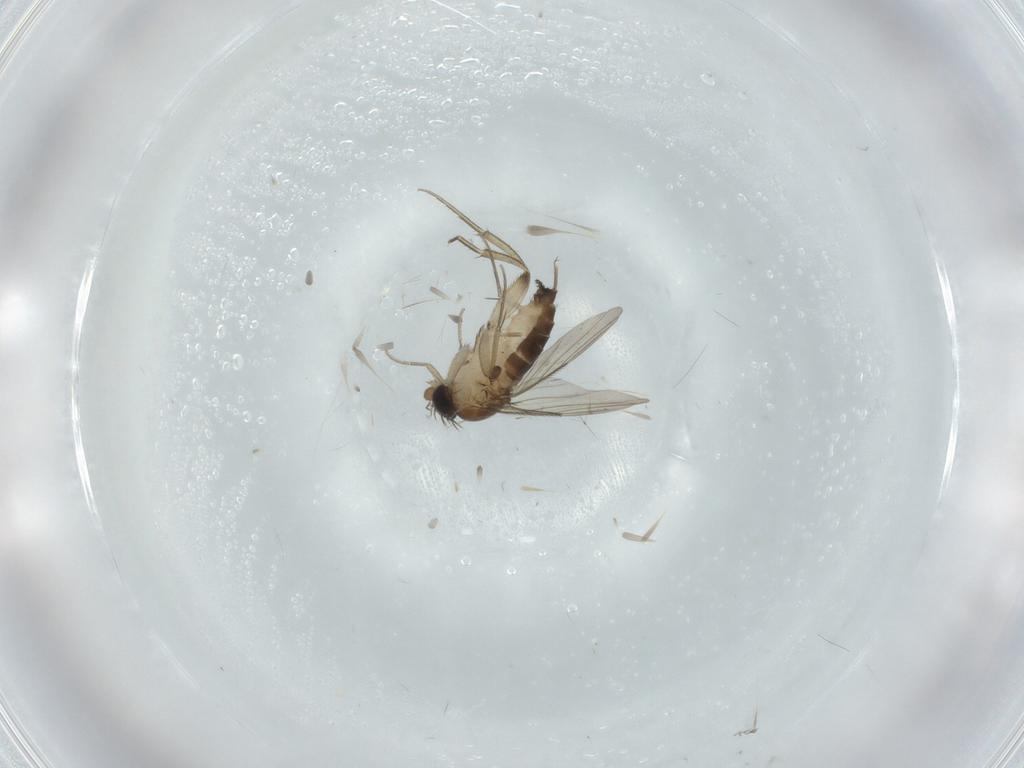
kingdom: Animalia
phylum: Arthropoda
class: Insecta
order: Diptera
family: Phoridae
